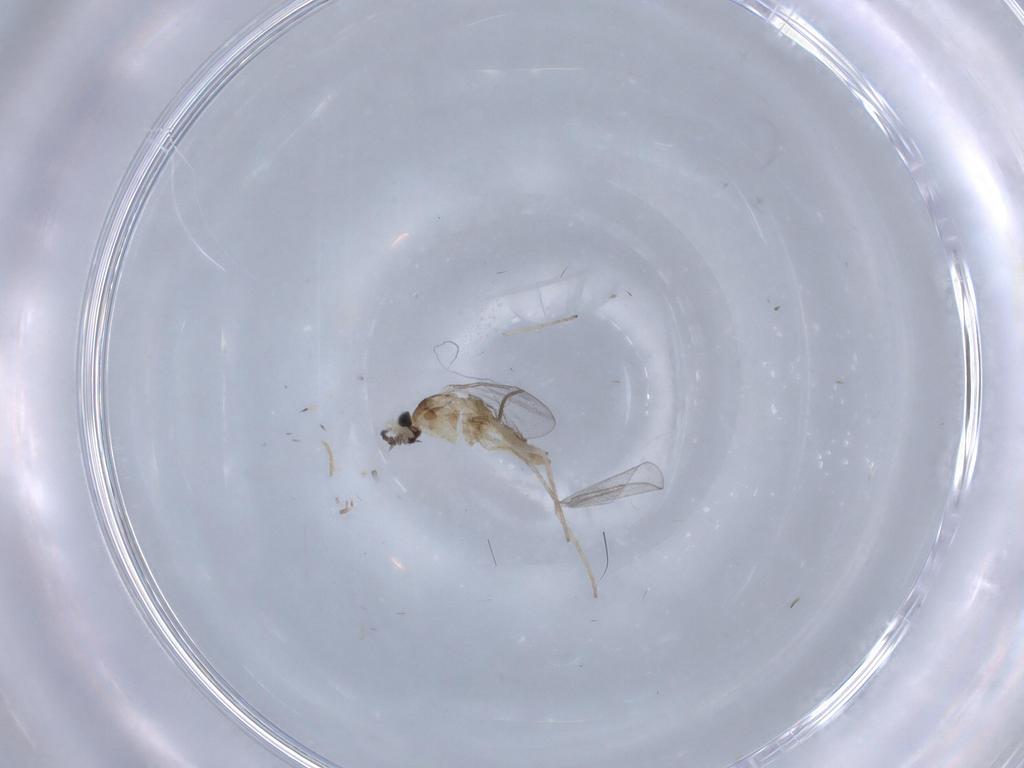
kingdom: Animalia
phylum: Arthropoda
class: Insecta
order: Diptera
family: Cecidomyiidae
